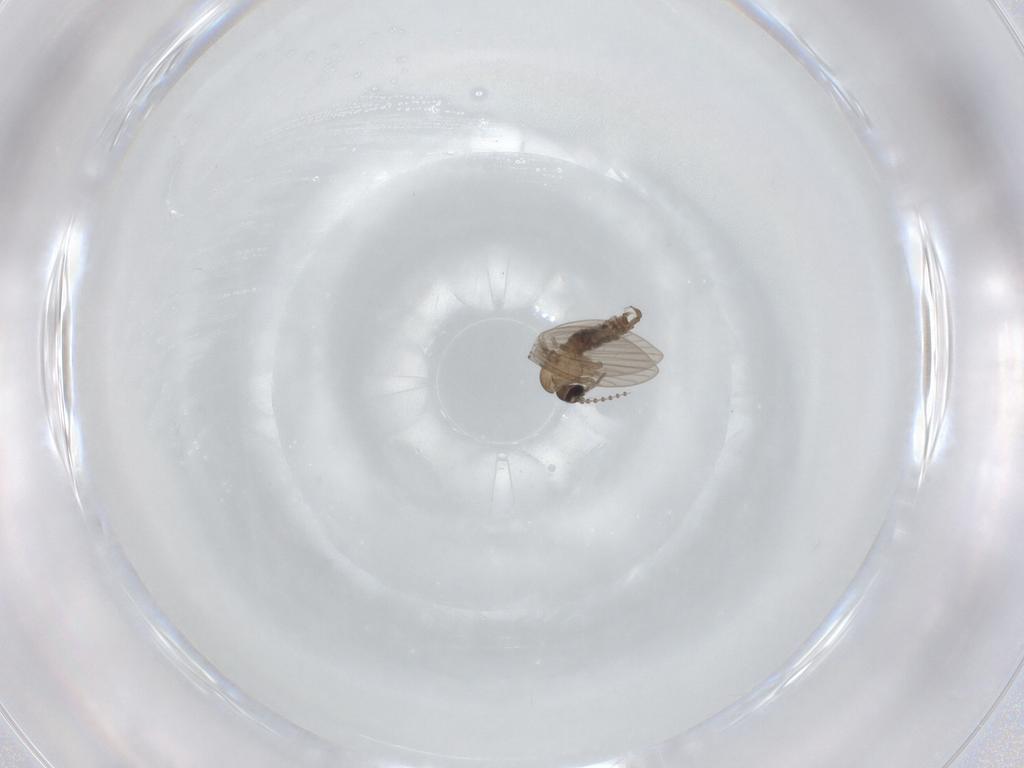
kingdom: Animalia
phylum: Arthropoda
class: Insecta
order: Diptera
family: Psychodidae
